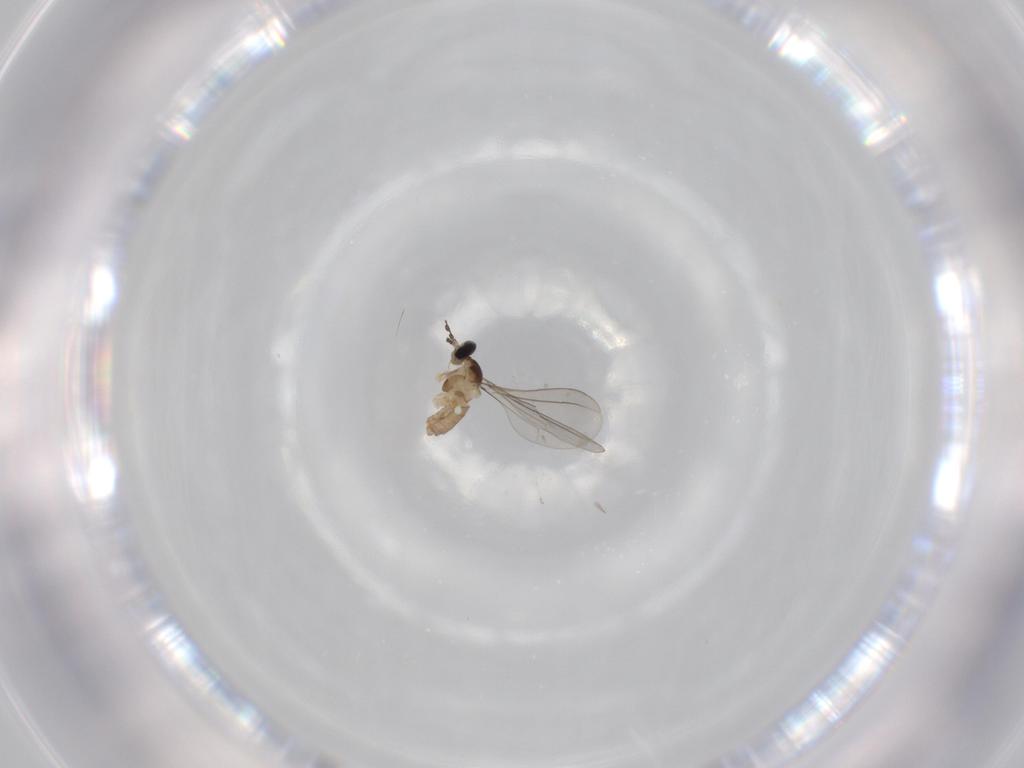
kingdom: Animalia
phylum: Arthropoda
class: Insecta
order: Diptera
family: Cecidomyiidae
